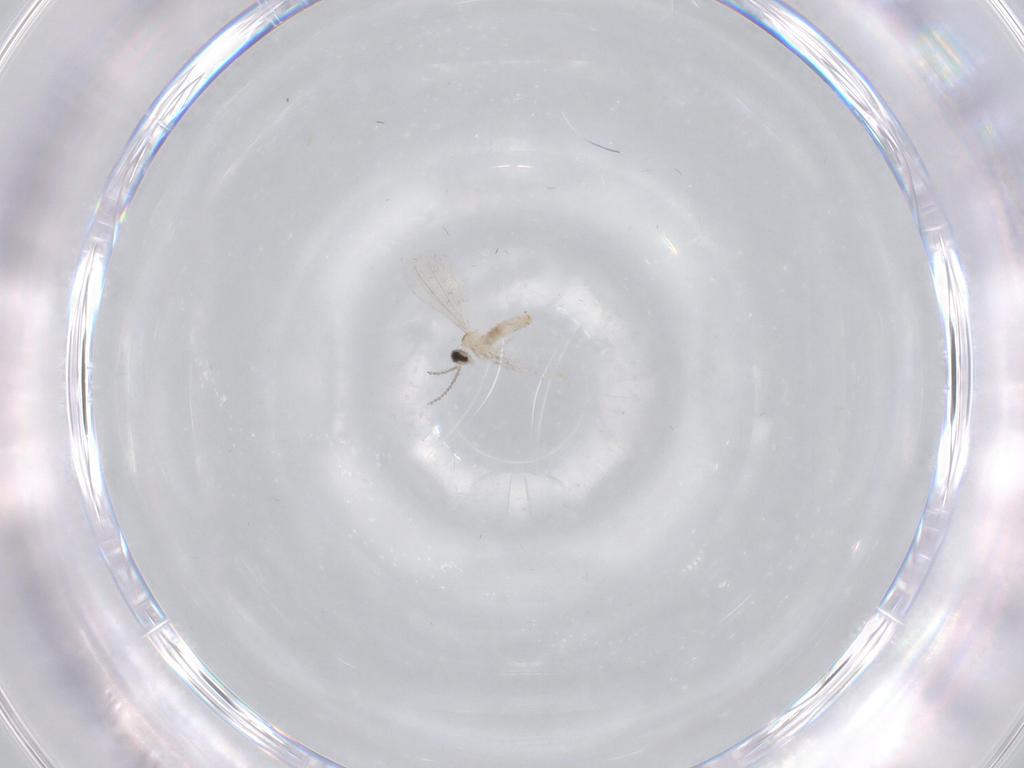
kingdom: Animalia
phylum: Arthropoda
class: Insecta
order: Diptera
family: Cecidomyiidae
